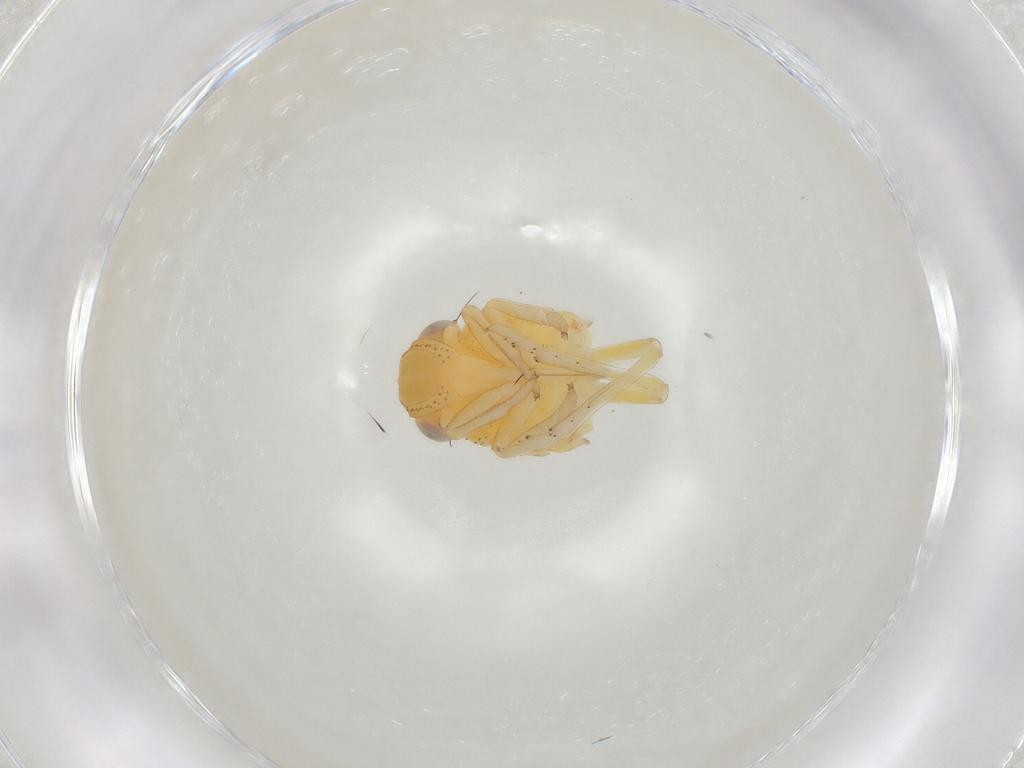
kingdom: Animalia
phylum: Arthropoda
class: Insecta
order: Hemiptera
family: Tropiduchidae
